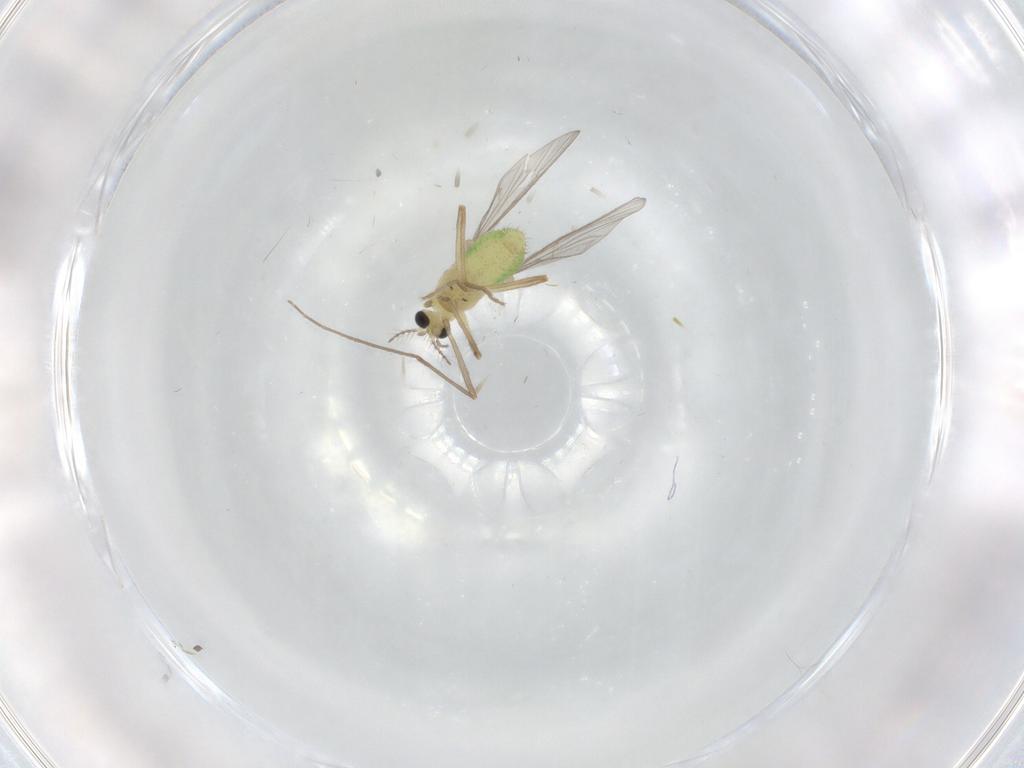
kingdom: Animalia
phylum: Arthropoda
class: Insecta
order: Diptera
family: Chironomidae
